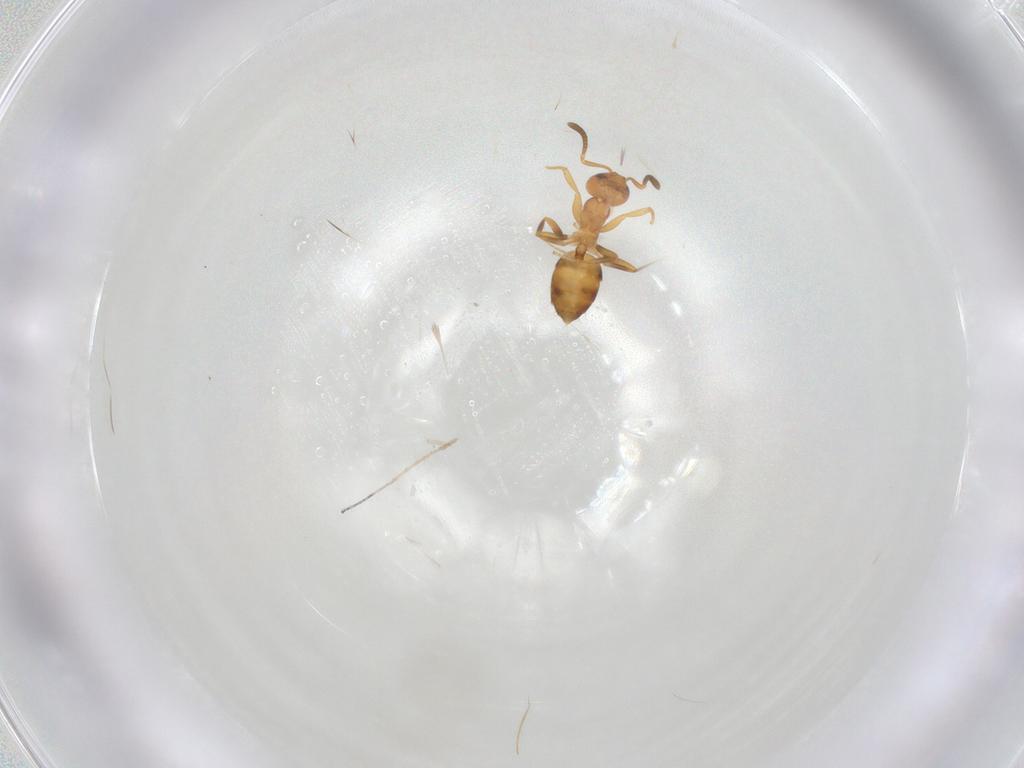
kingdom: Animalia
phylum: Arthropoda
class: Insecta
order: Hymenoptera
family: Formicidae
